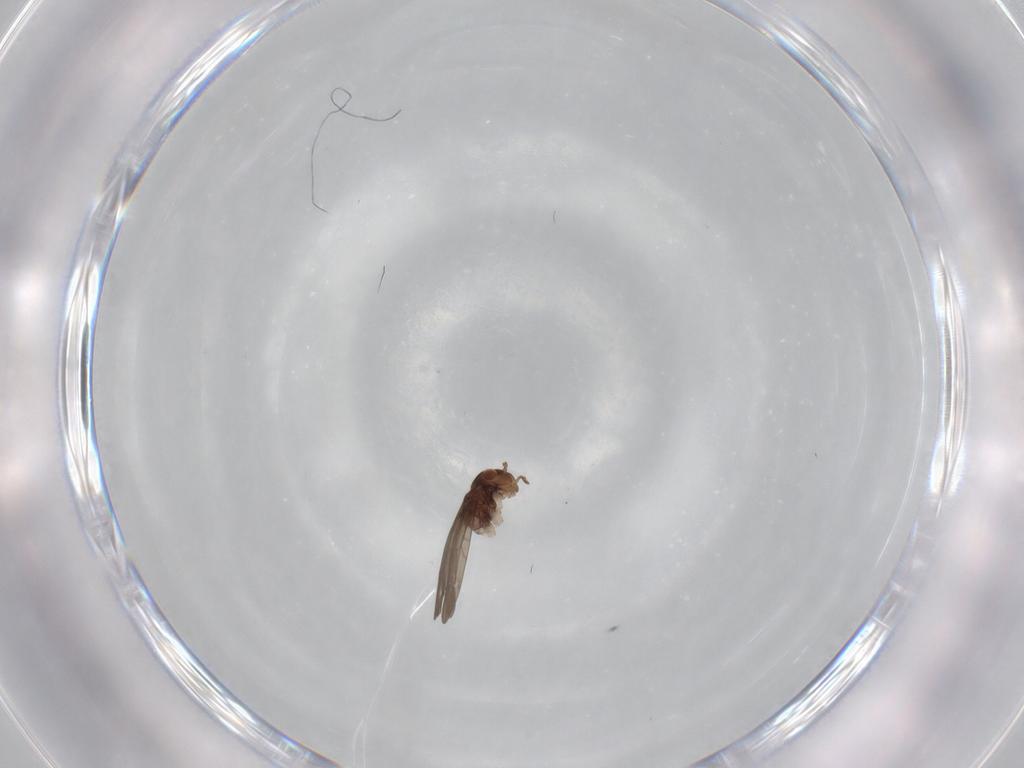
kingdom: Animalia
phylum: Arthropoda
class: Insecta
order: Psocodea
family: Lepidopsocidae
